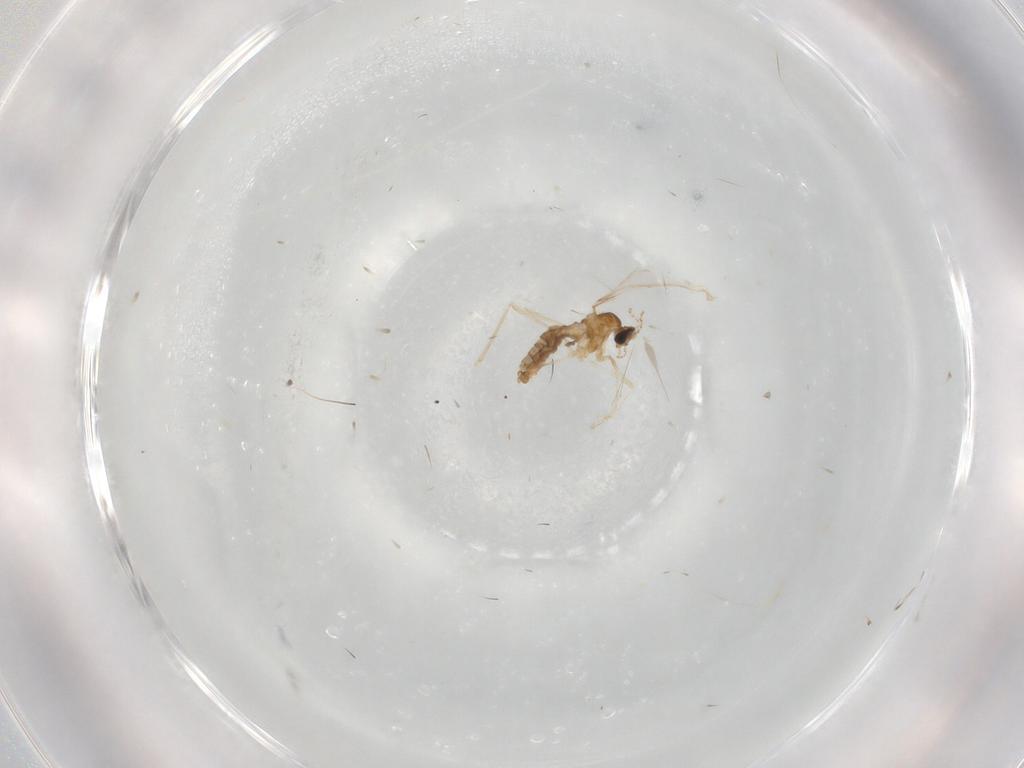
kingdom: Animalia
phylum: Arthropoda
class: Insecta
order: Diptera
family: Cecidomyiidae
